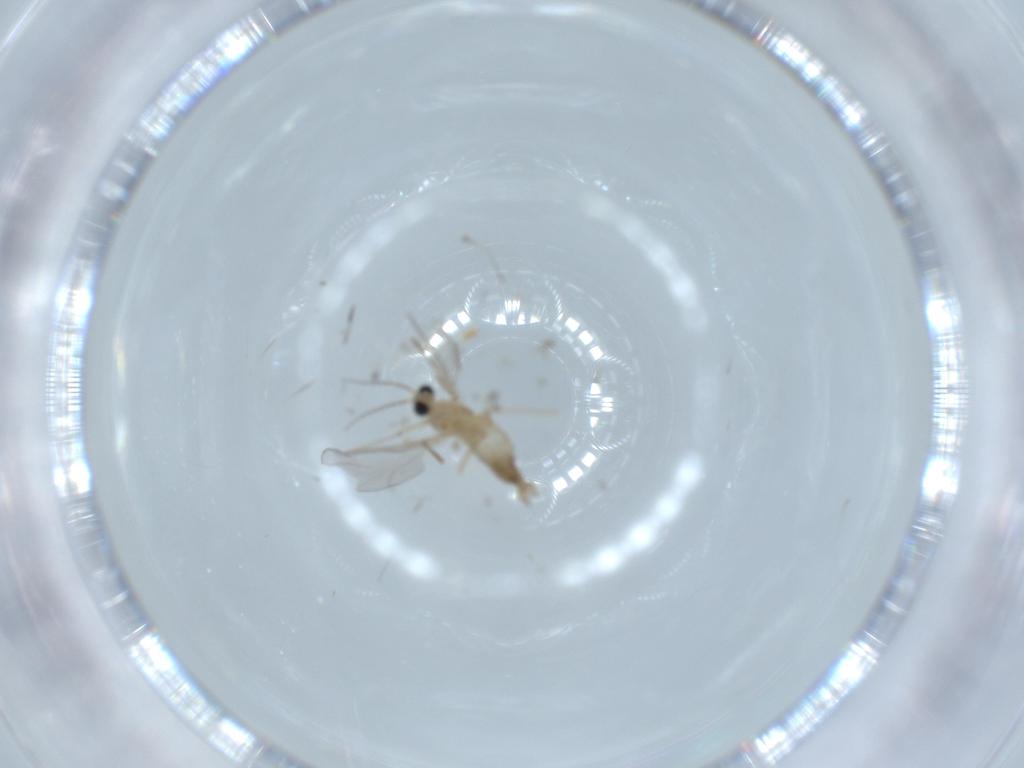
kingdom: Animalia
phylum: Arthropoda
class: Insecta
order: Diptera
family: Cecidomyiidae
